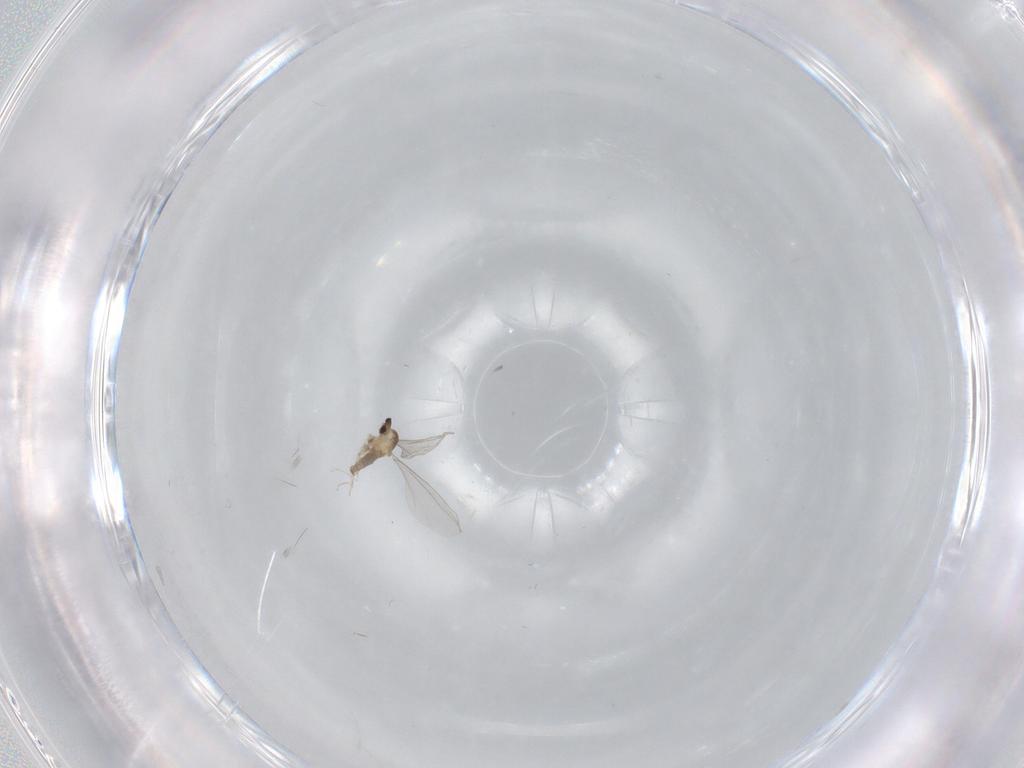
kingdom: Animalia
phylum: Arthropoda
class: Insecta
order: Diptera
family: Cecidomyiidae
